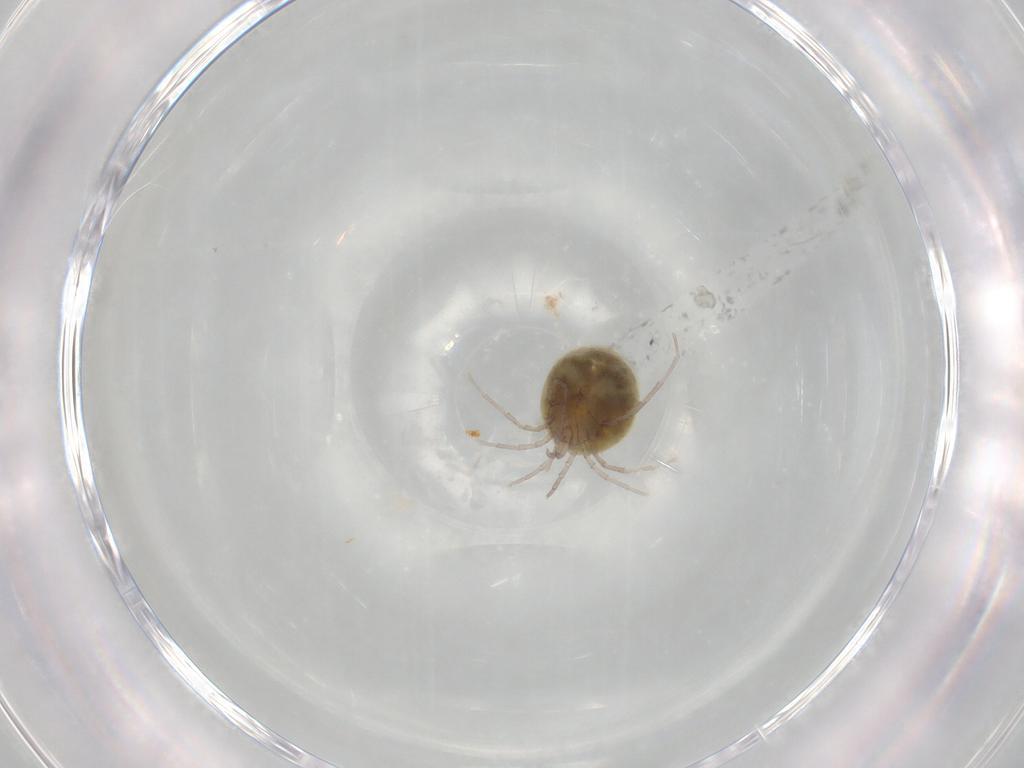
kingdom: Animalia
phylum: Arthropoda
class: Arachnida
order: Trombidiformes
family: Lebertiidae
